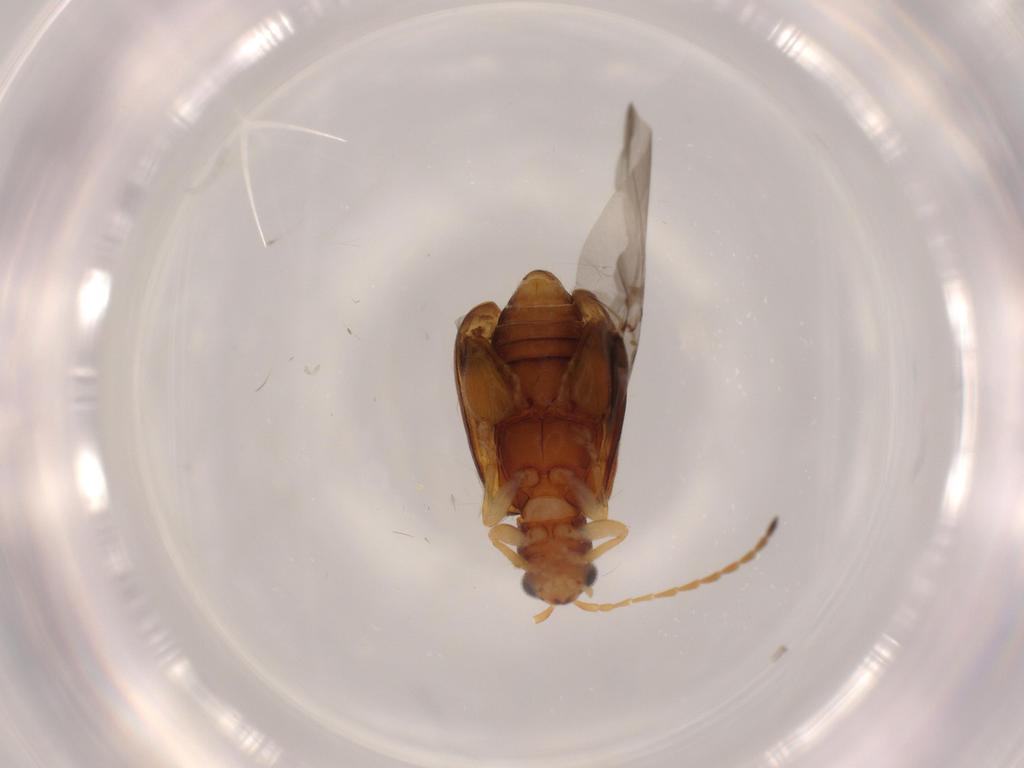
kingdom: Animalia
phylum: Arthropoda
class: Insecta
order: Coleoptera
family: Chrysomelidae
